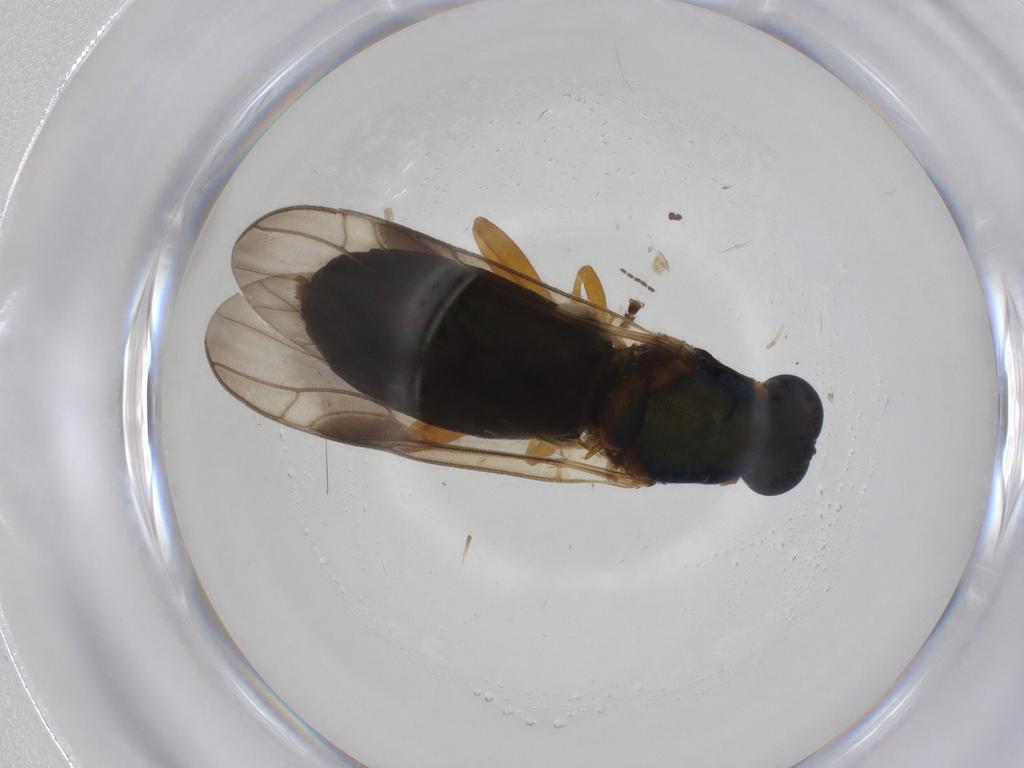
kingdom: Animalia
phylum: Arthropoda
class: Insecta
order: Diptera
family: Stratiomyidae
